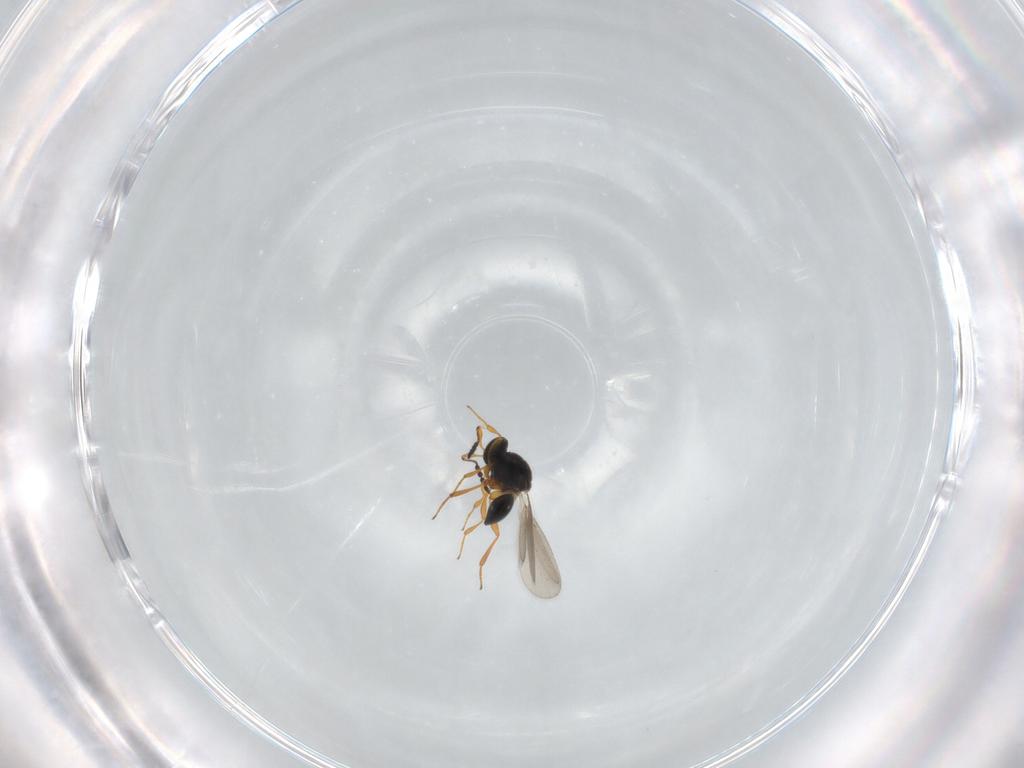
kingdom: Animalia
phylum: Arthropoda
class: Insecta
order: Hymenoptera
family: Platygastridae
